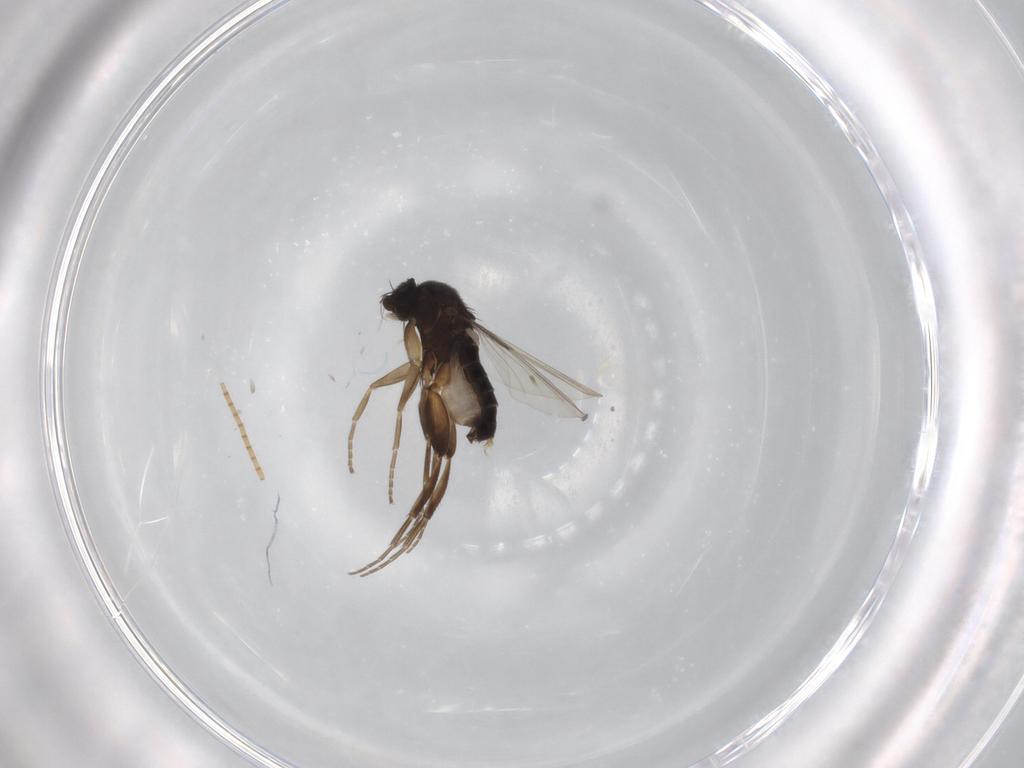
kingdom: Animalia
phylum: Arthropoda
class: Insecta
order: Diptera
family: Phoridae
